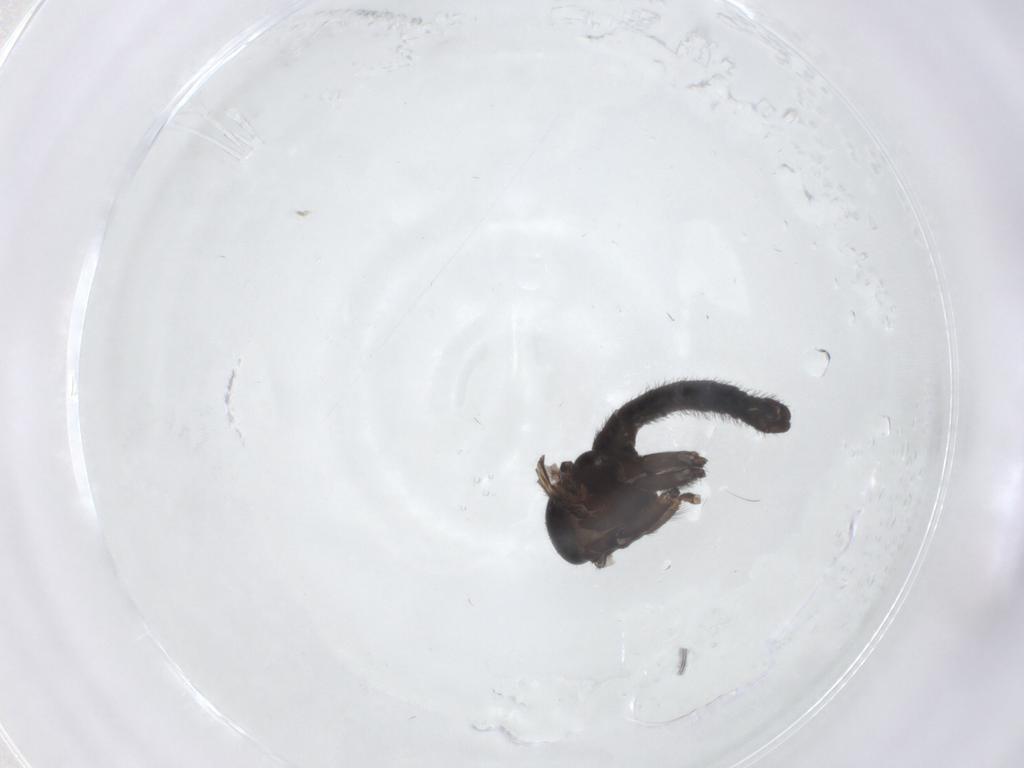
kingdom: Animalia
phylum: Arthropoda
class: Insecta
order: Diptera
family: Sciaridae
